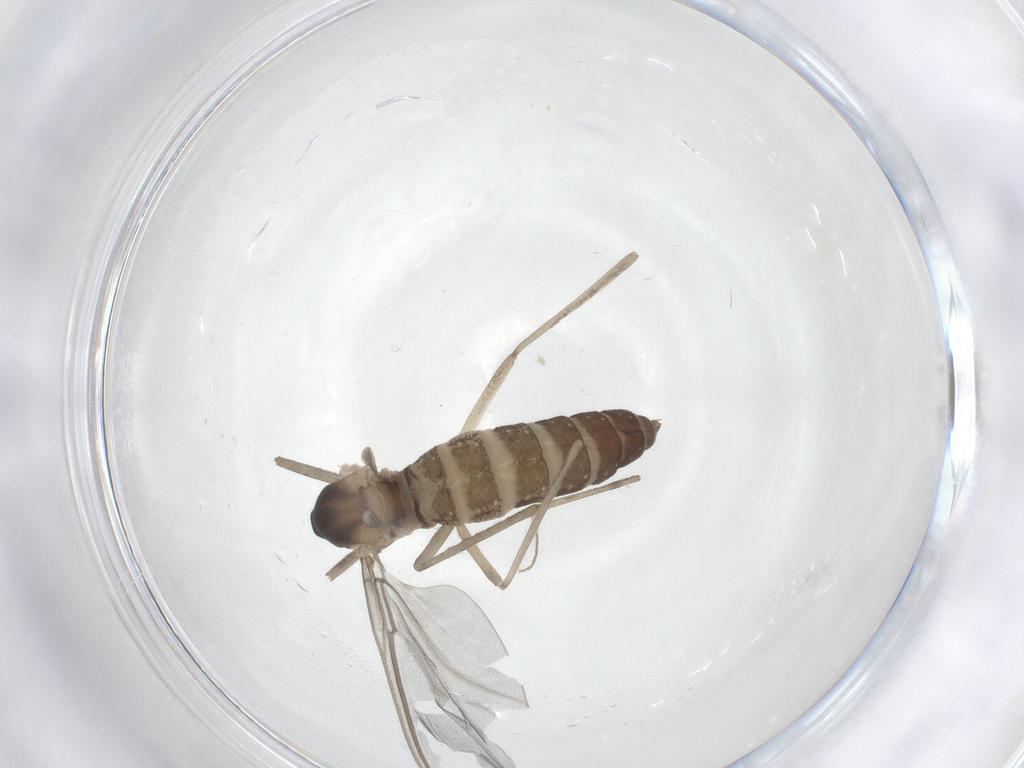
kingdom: Animalia
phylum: Arthropoda
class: Insecta
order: Diptera
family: Cecidomyiidae
